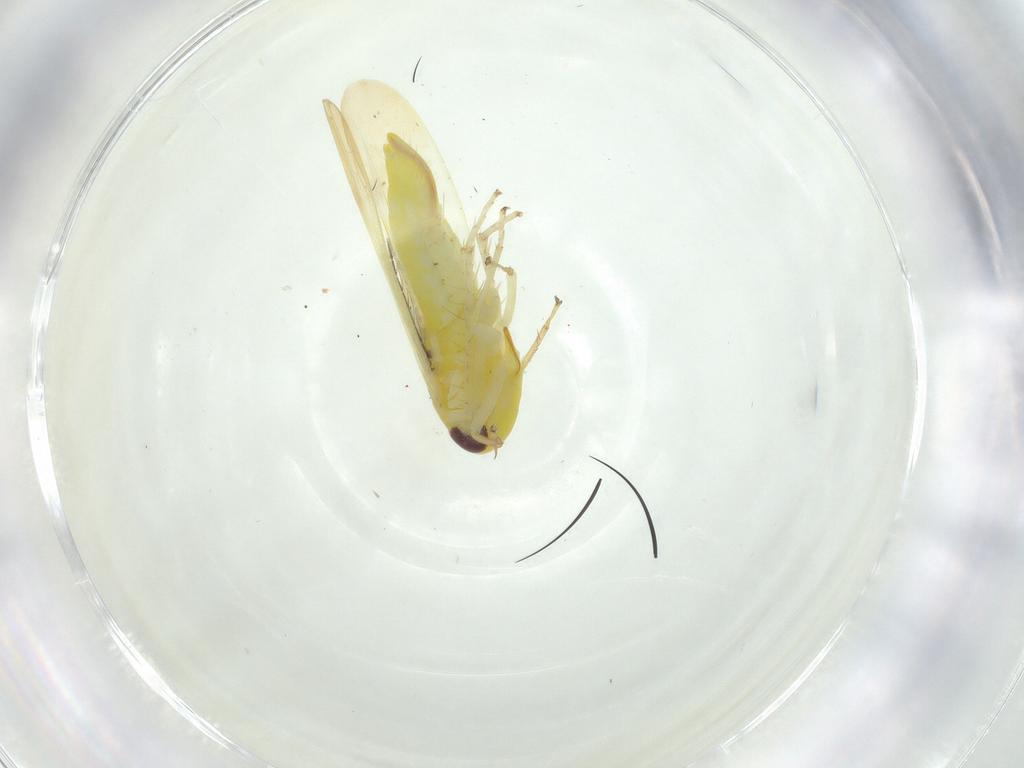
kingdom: Animalia
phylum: Arthropoda
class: Insecta
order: Hemiptera
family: Cicadellidae
